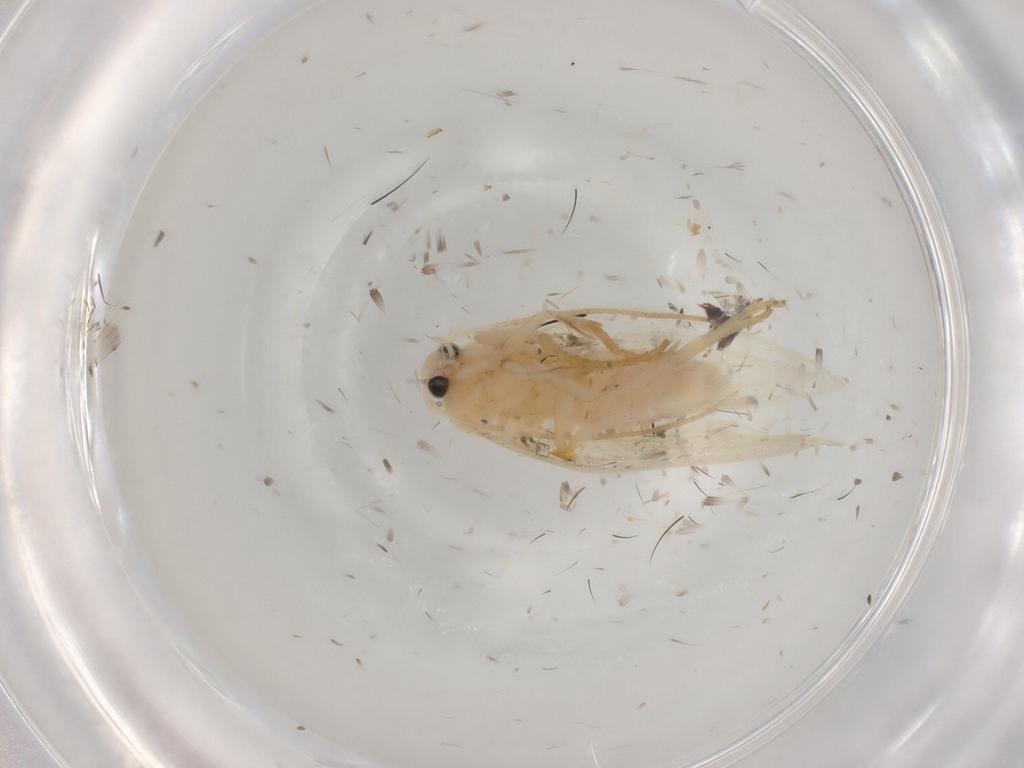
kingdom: Animalia
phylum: Arthropoda
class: Insecta
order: Lepidoptera
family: Elachistidae
